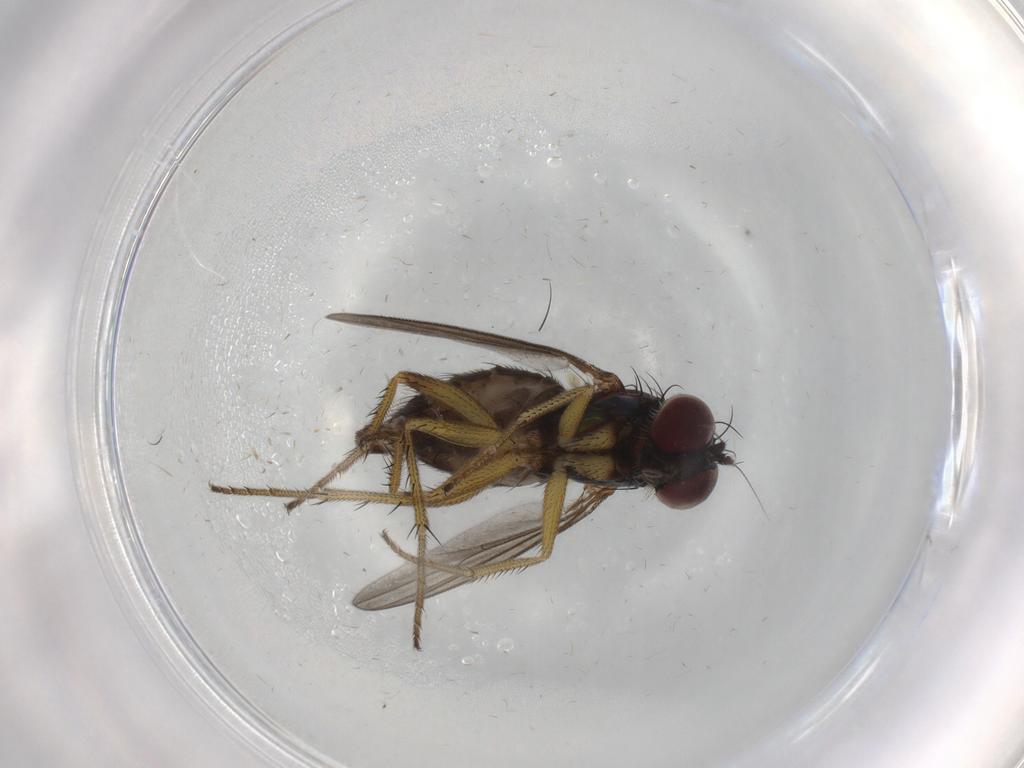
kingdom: Animalia
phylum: Arthropoda
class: Insecta
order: Diptera
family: Dolichopodidae
